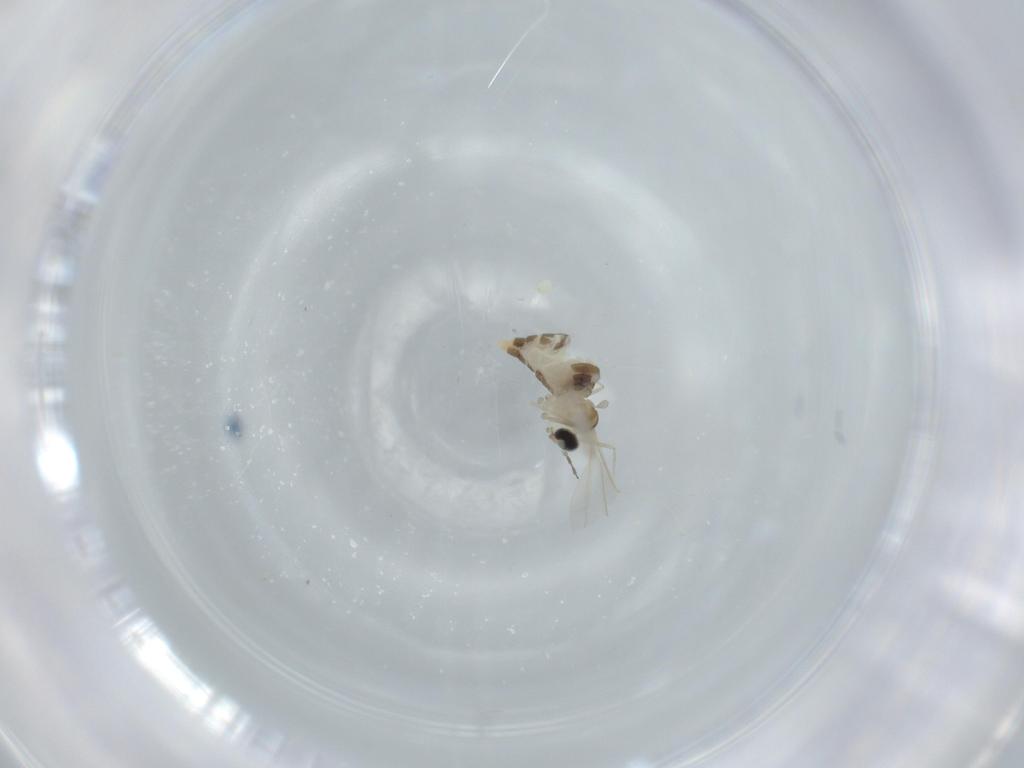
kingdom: Animalia
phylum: Arthropoda
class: Insecta
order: Diptera
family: Cecidomyiidae
